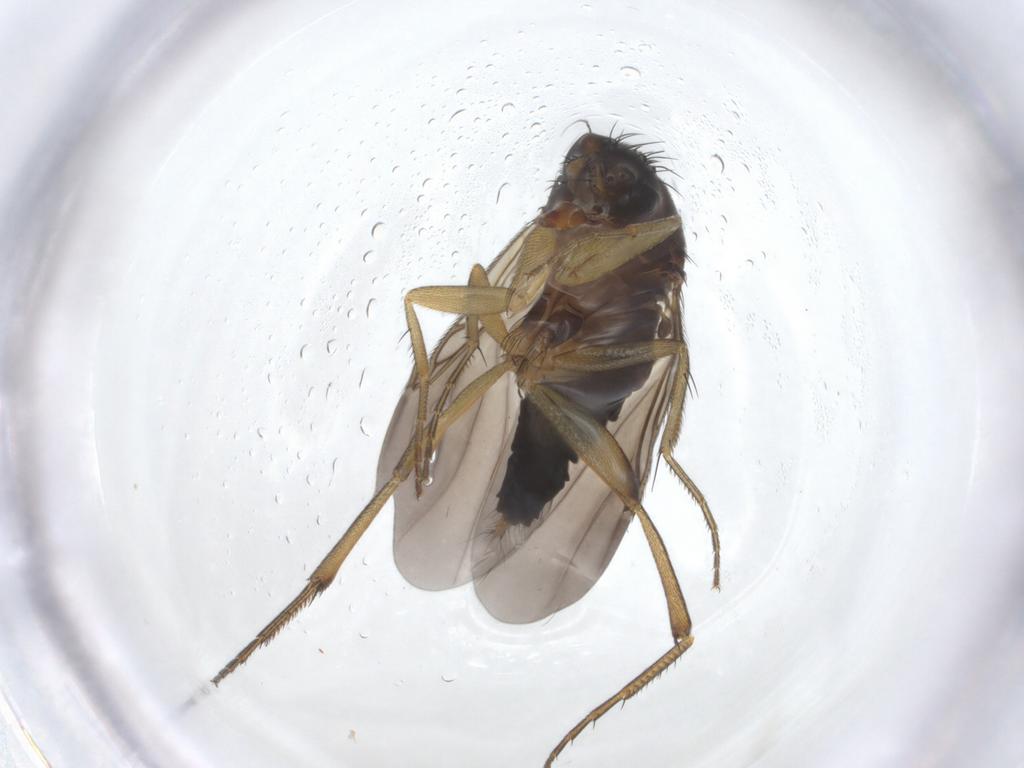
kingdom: Animalia
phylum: Arthropoda
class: Insecta
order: Diptera
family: Phoridae
